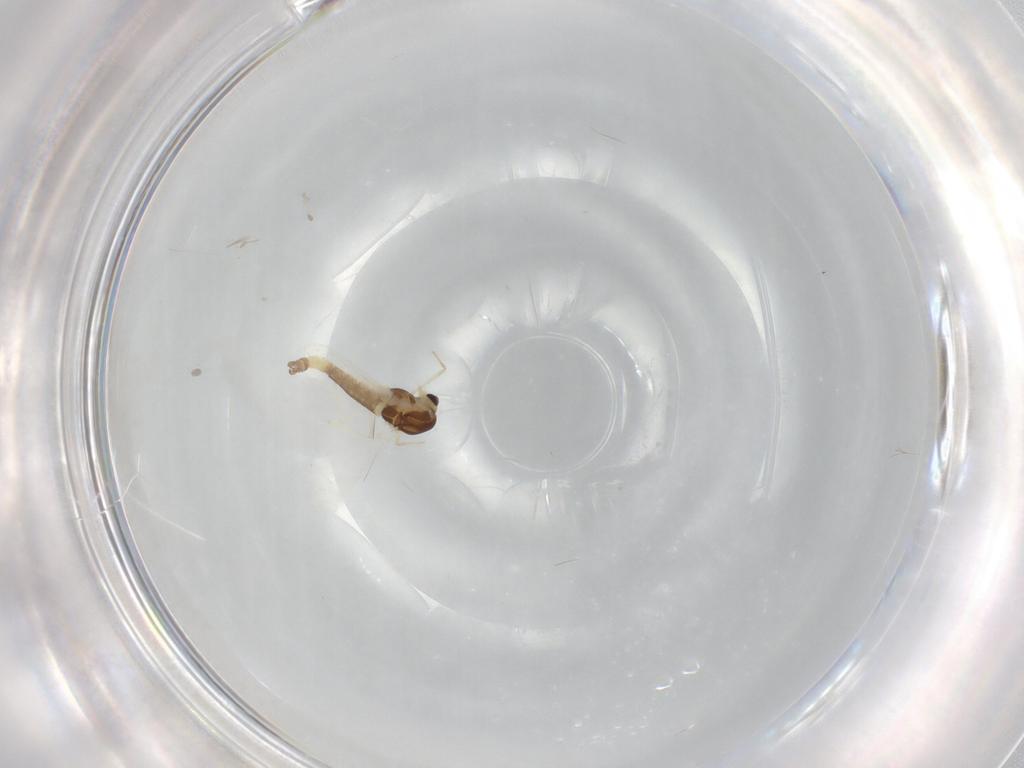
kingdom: Animalia
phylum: Arthropoda
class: Insecta
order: Diptera
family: Chironomidae
